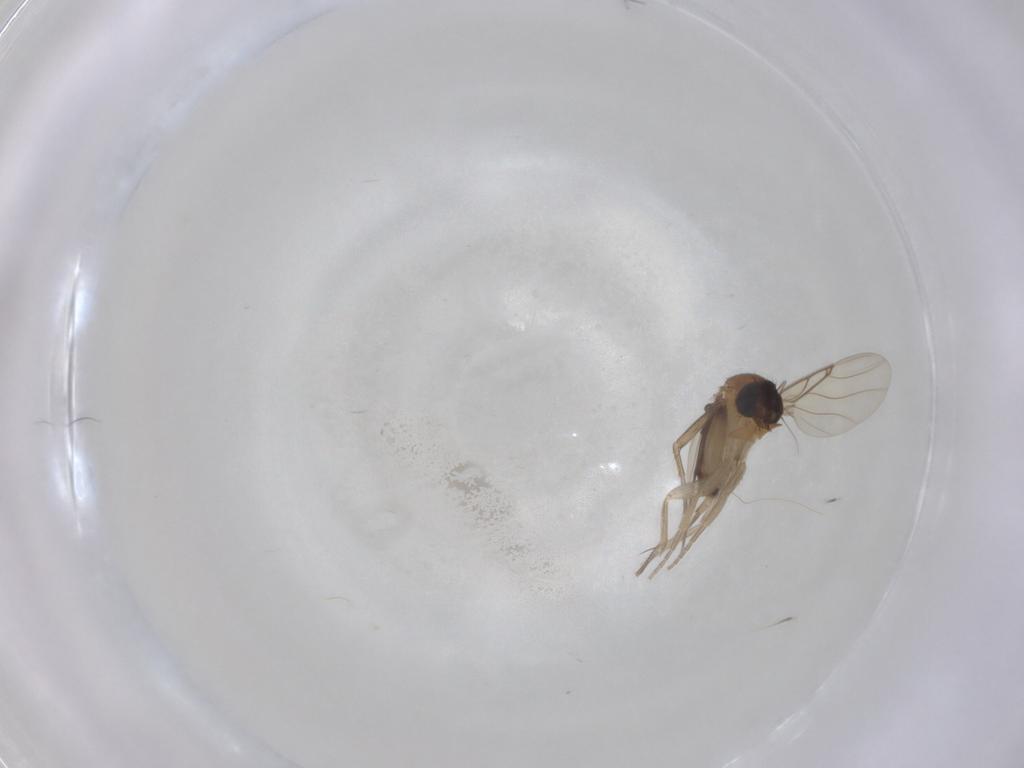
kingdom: Animalia
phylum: Arthropoda
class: Insecta
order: Diptera
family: Phoridae
